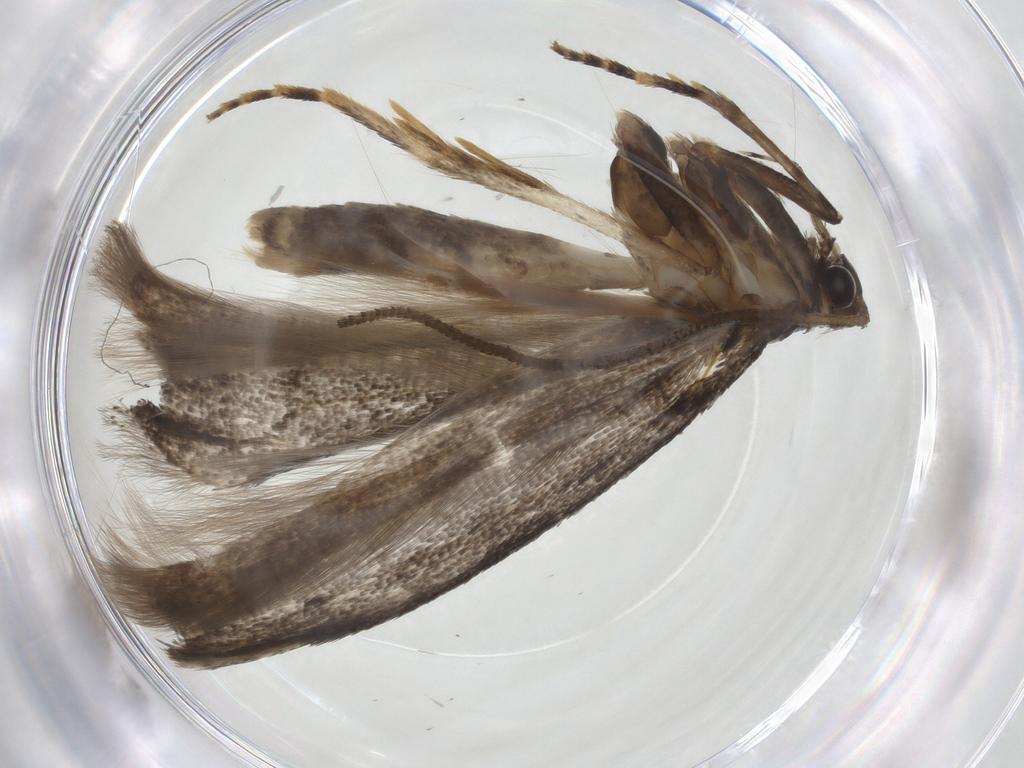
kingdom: Animalia
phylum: Arthropoda
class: Insecta
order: Lepidoptera
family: Gelechiidae
